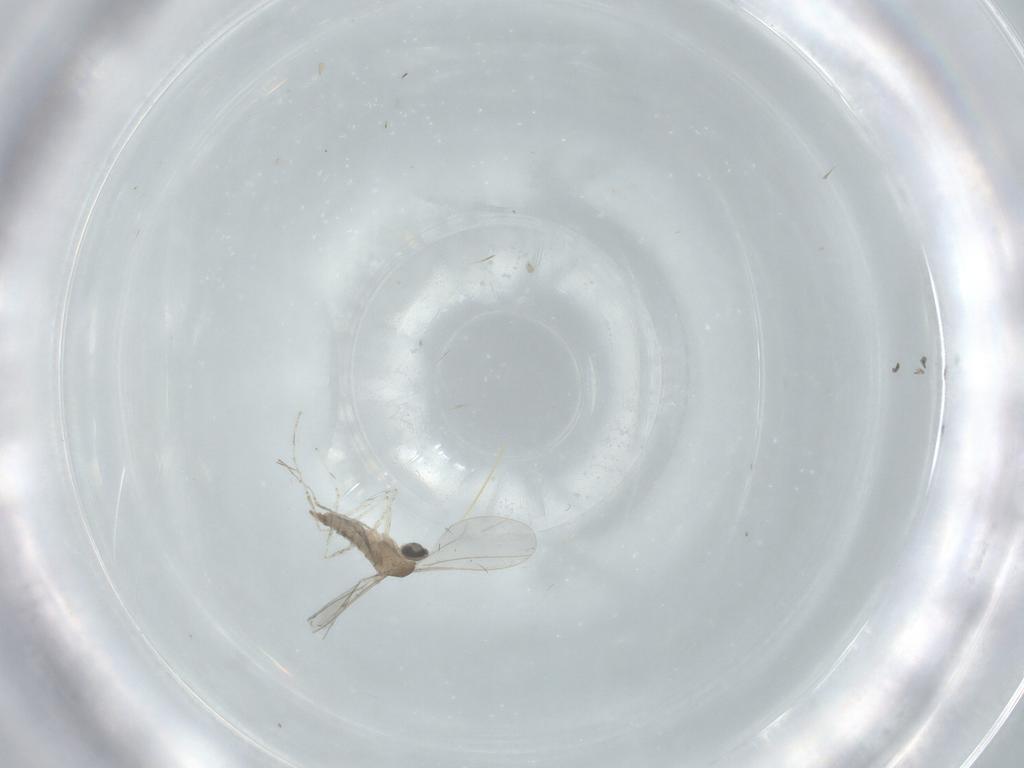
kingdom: Animalia
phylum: Arthropoda
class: Insecta
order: Diptera
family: Cecidomyiidae
